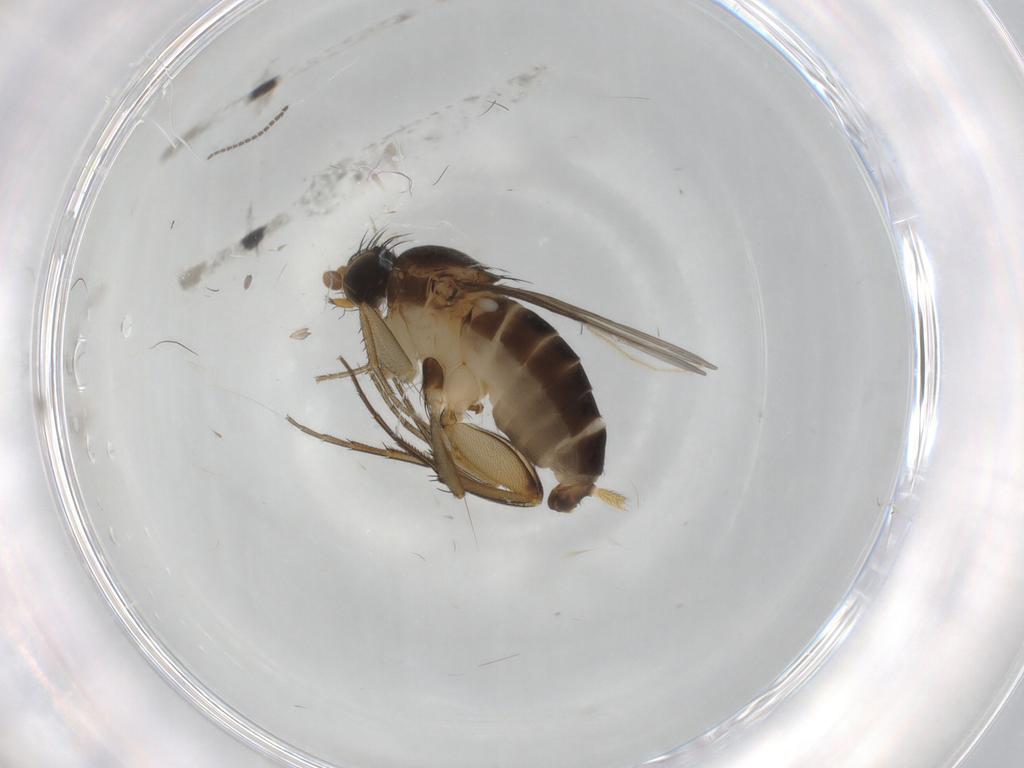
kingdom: Animalia
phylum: Arthropoda
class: Insecta
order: Diptera
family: Phoridae
